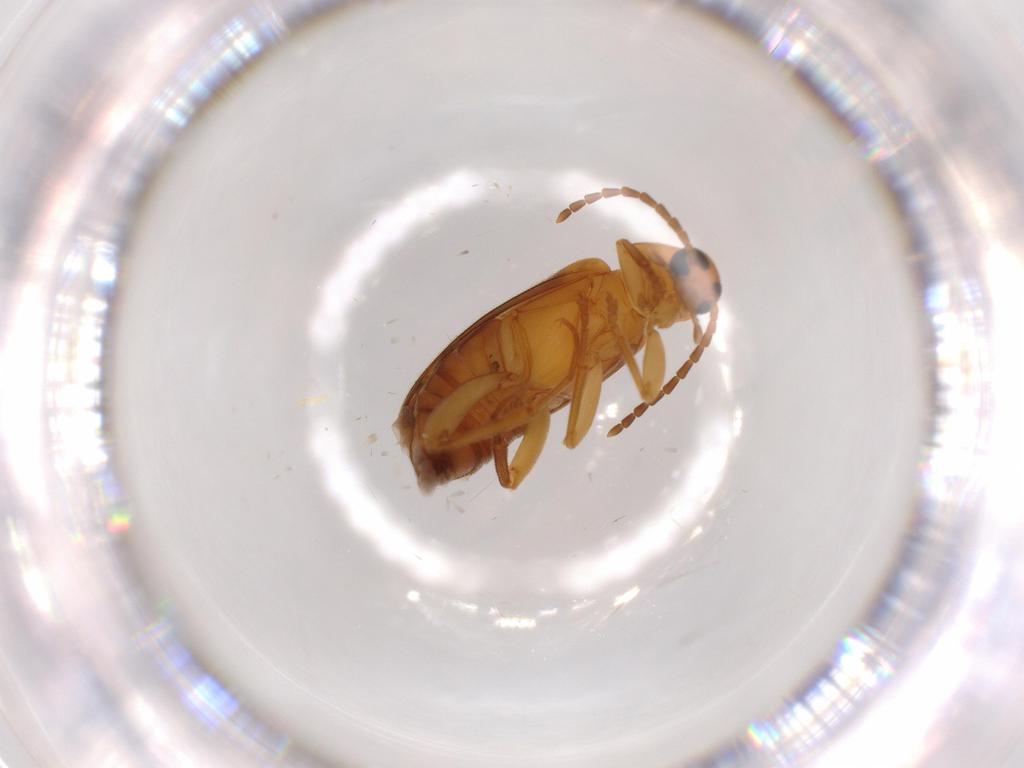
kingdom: Animalia
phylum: Arthropoda
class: Insecta
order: Coleoptera
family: Scraptiidae
